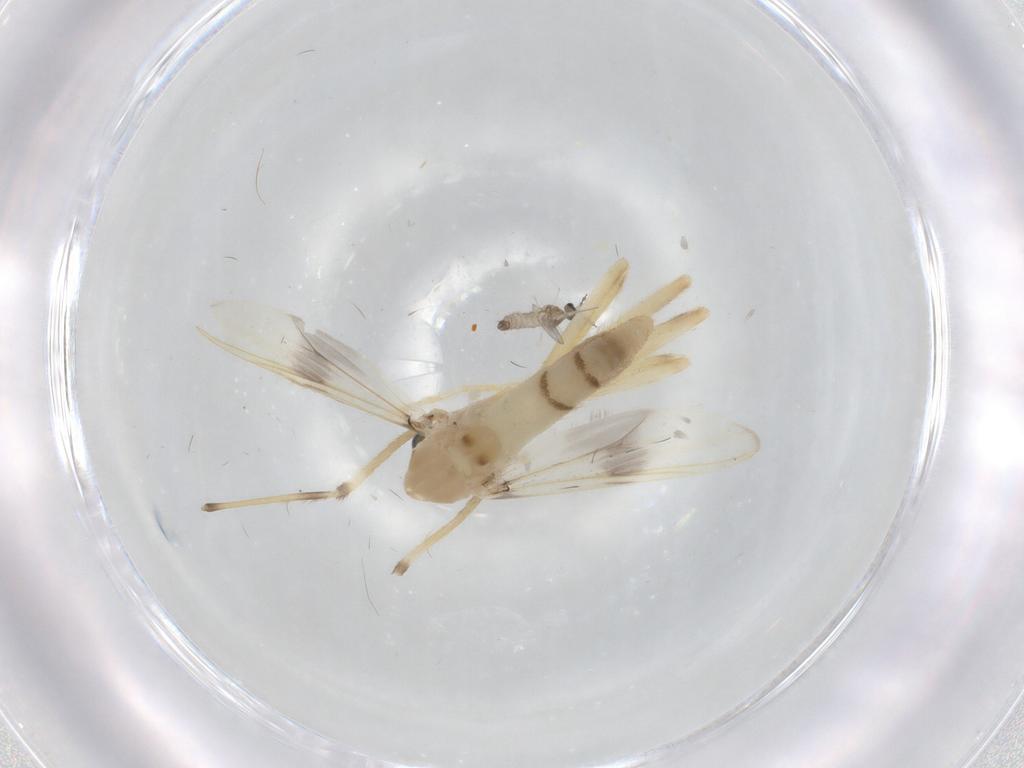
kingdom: Animalia
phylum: Arthropoda
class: Insecta
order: Diptera
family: Chironomidae
